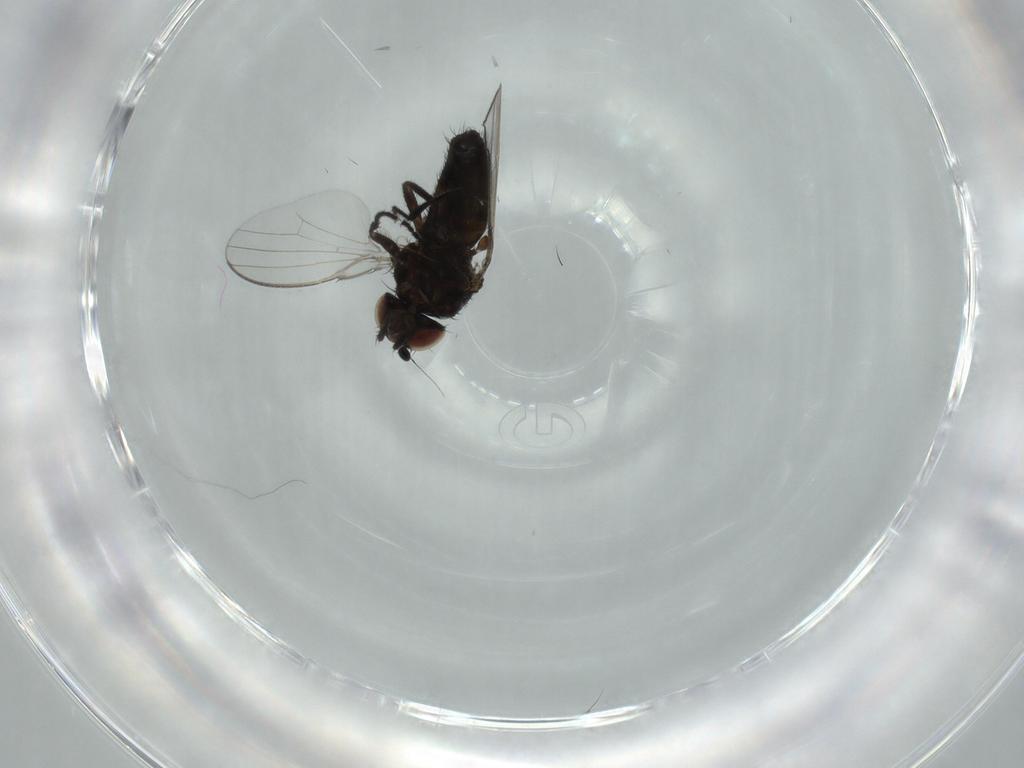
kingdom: Animalia
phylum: Arthropoda
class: Insecta
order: Diptera
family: Milichiidae
